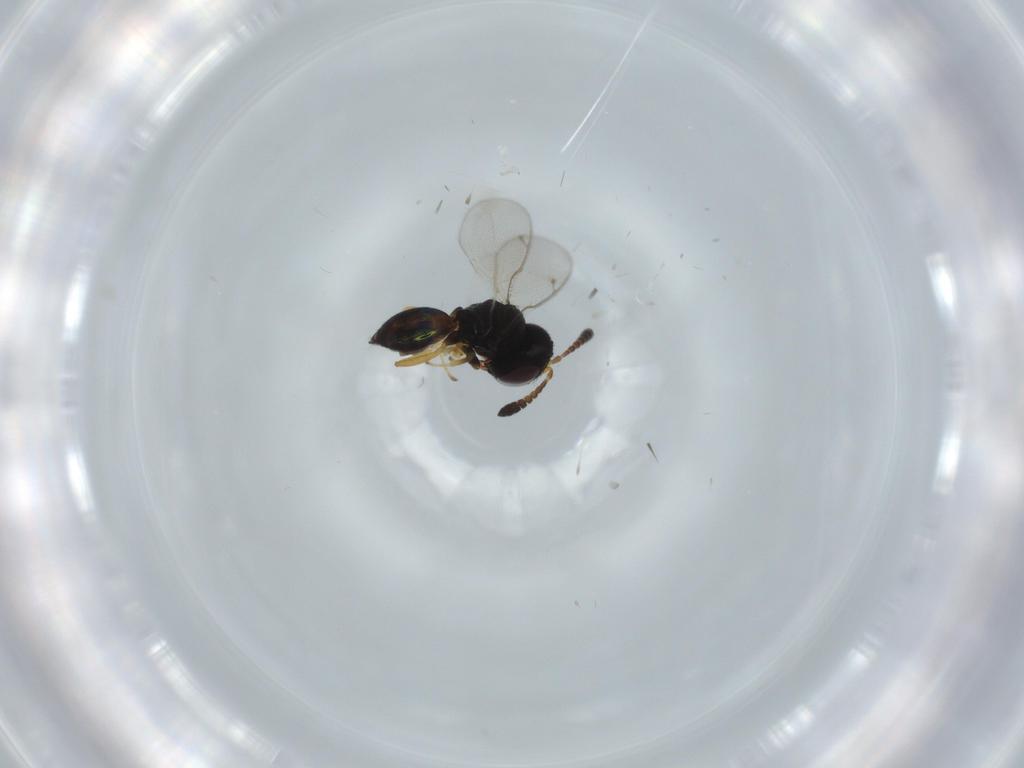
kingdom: Animalia
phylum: Arthropoda
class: Insecta
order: Hymenoptera
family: Pteromalidae
